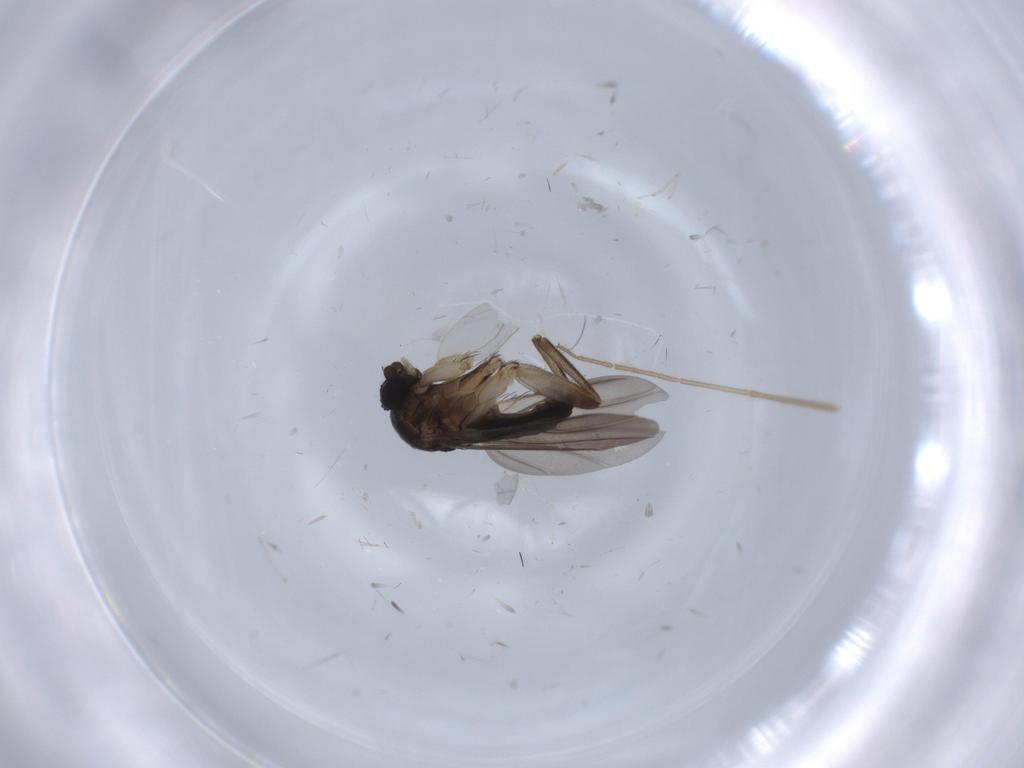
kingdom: Animalia
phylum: Arthropoda
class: Insecta
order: Diptera
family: Phoridae
